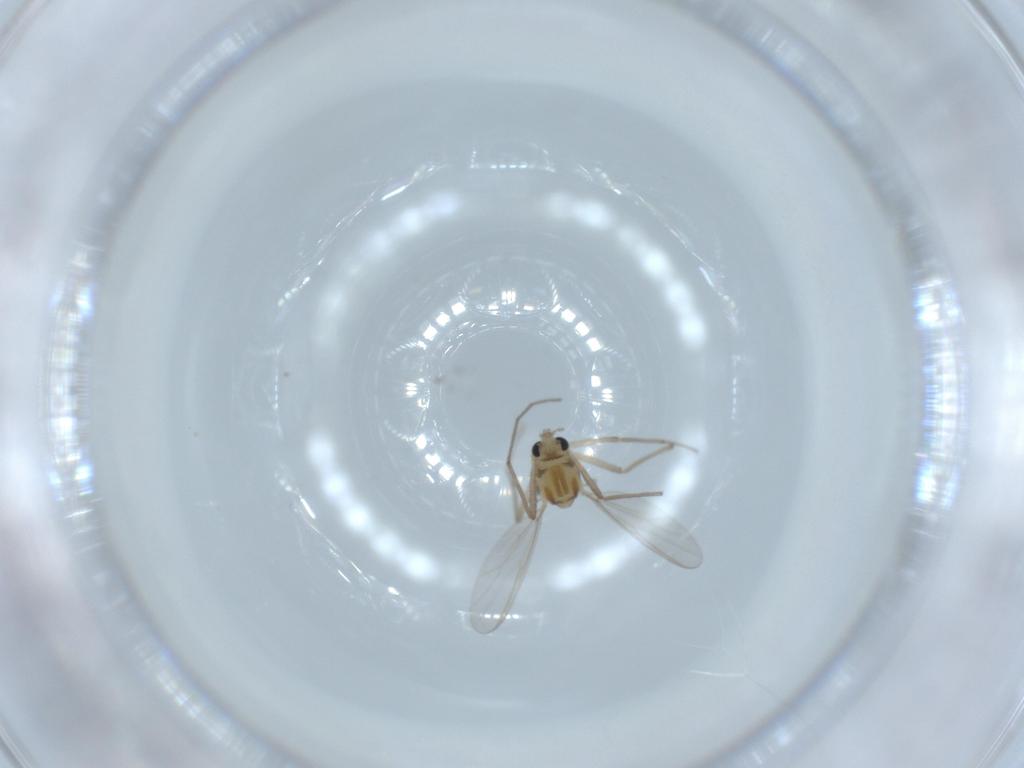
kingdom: Animalia
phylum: Arthropoda
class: Insecta
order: Diptera
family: Chironomidae
